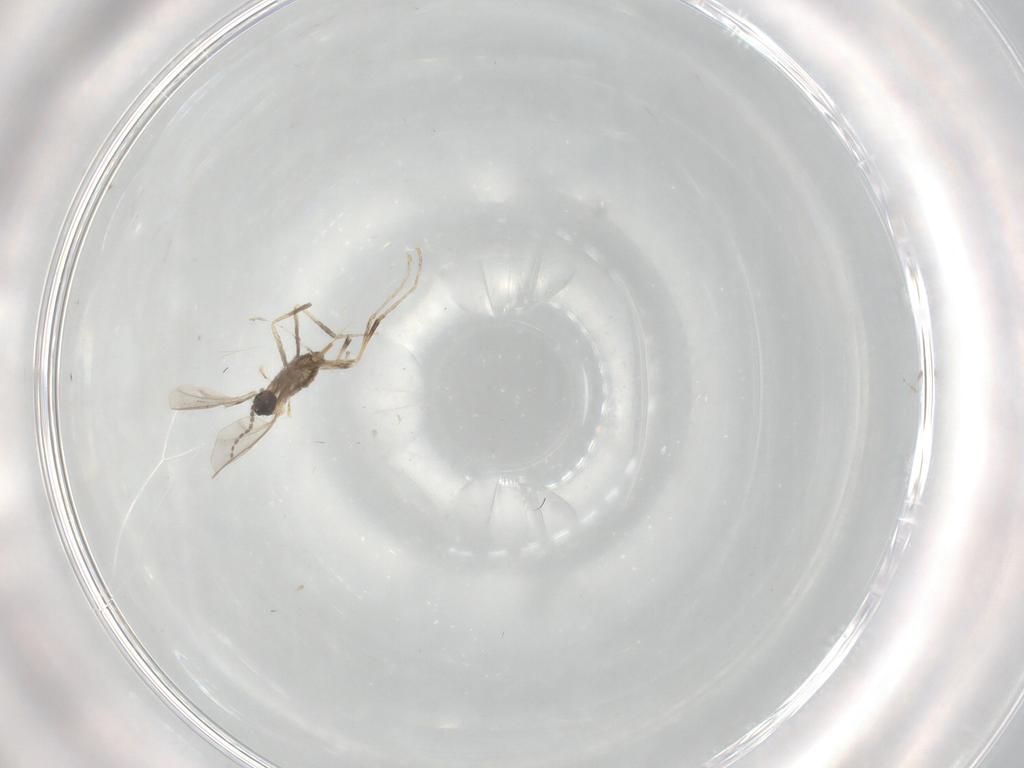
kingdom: Animalia
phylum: Arthropoda
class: Insecta
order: Diptera
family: Cecidomyiidae
